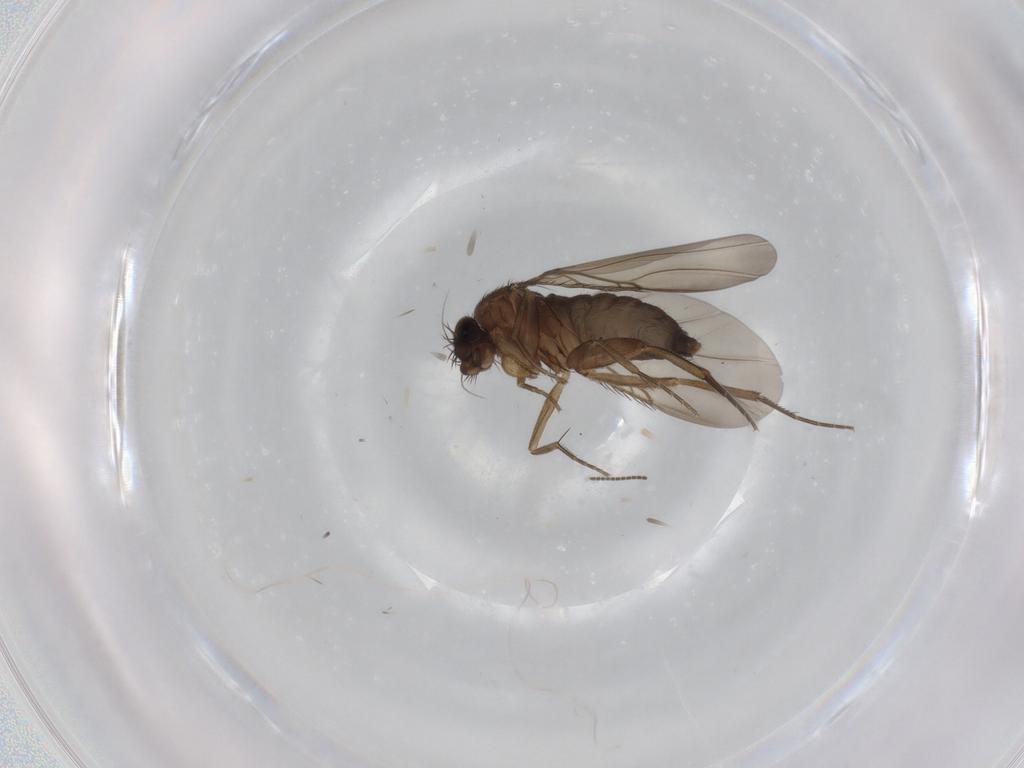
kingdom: Animalia
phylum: Arthropoda
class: Insecta
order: Diptera
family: Phoridae
